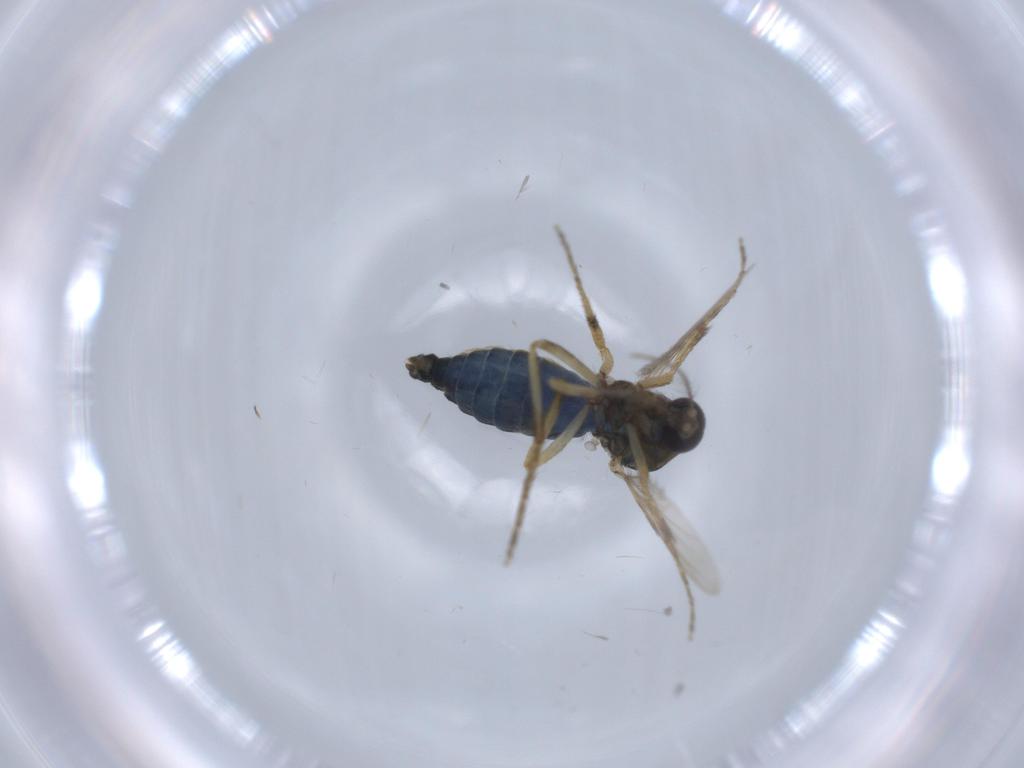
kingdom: Animalia
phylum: Arthropoda
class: Insecta
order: Diptera
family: Ceratopogonidae
